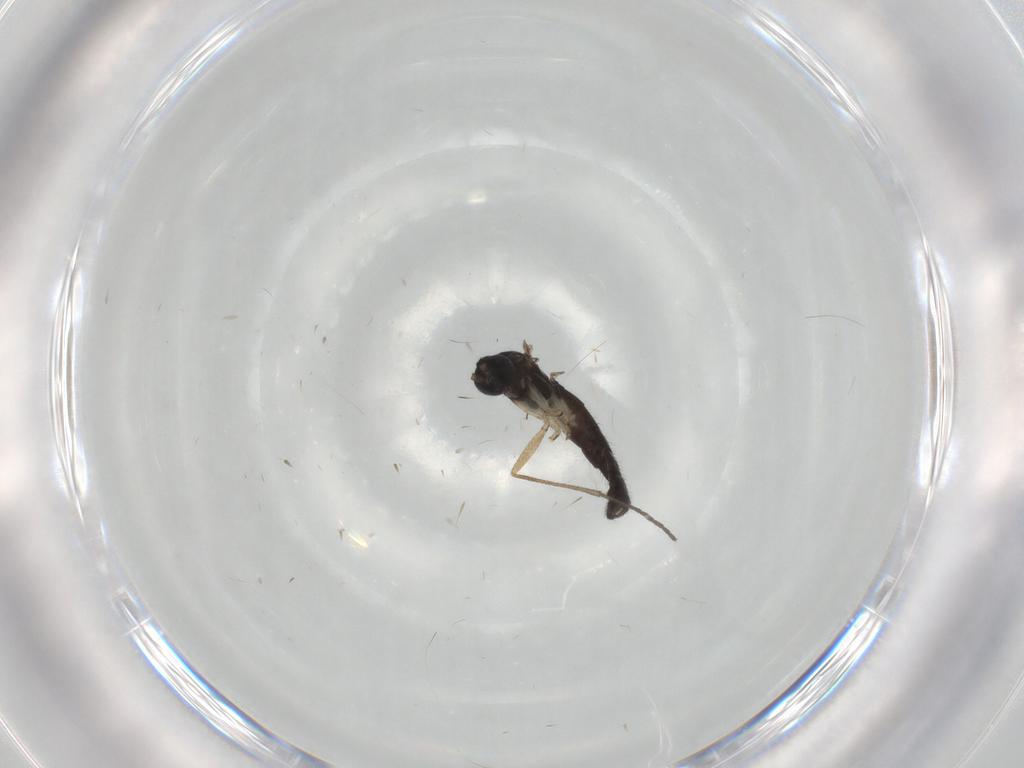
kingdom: Animalia
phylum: Arthropoda
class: Insecta
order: Diptera
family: Sciaridae
